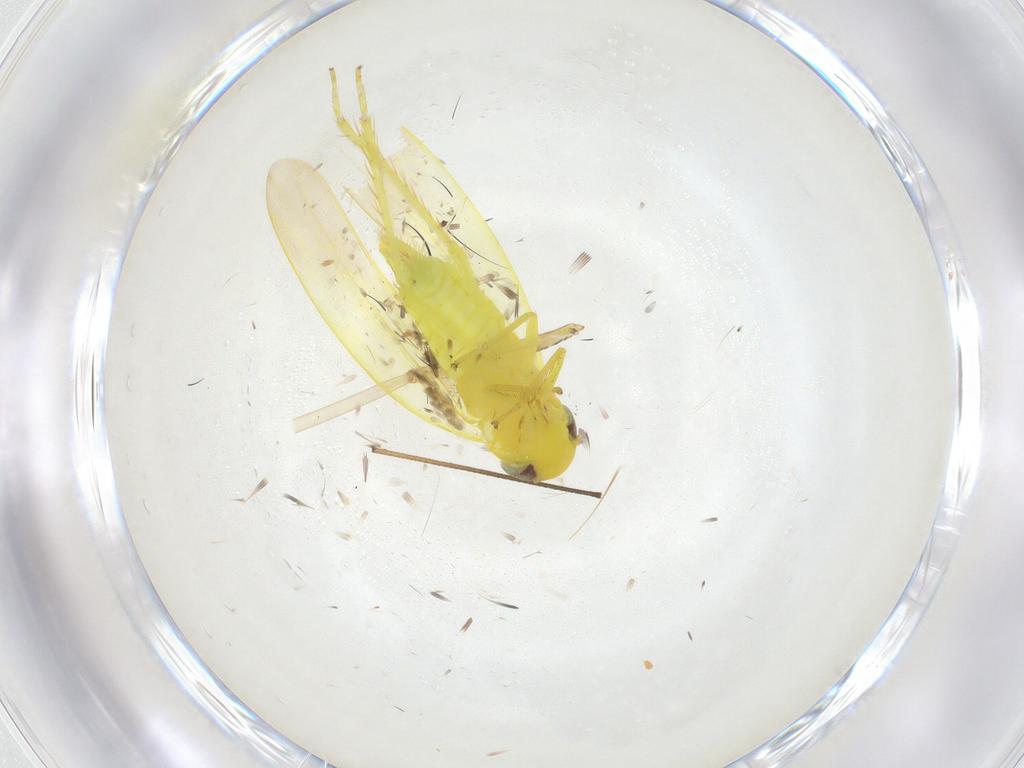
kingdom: Animalia
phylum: Arthropoda
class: Insecta
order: Hemiptera
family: Cicadellidae
